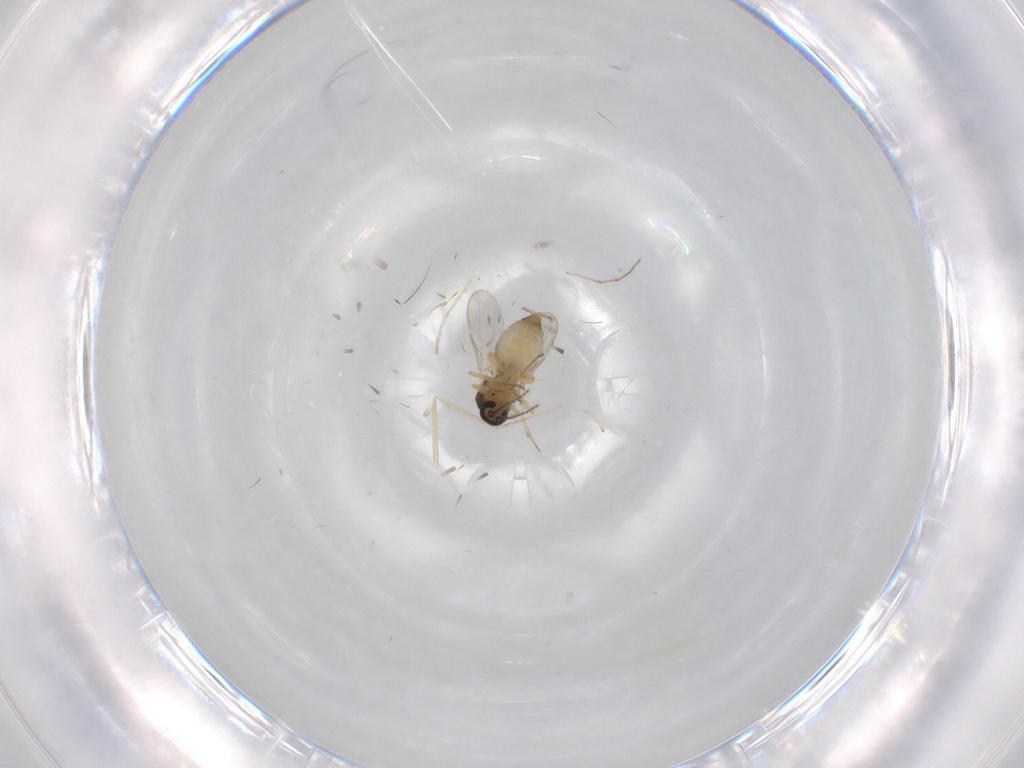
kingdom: Animalia
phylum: Arthropoda
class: Insecta
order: Diptera
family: Ceratopogonidae
